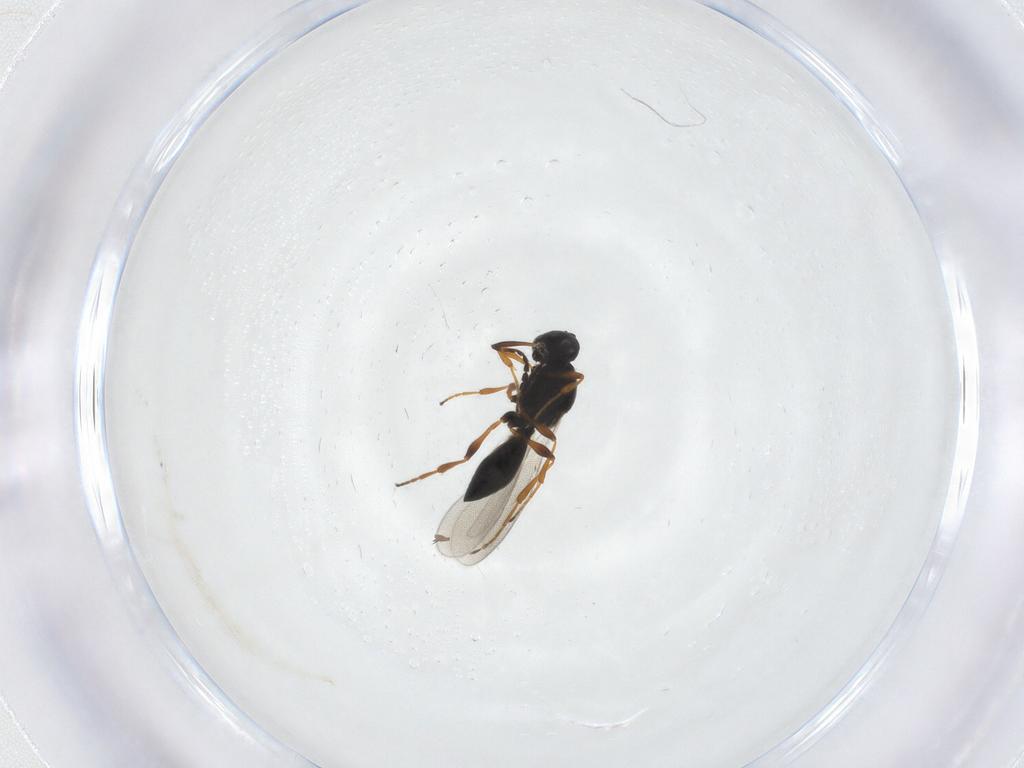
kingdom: Animalia
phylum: Arthropoda
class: Insecta
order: Hymenoptera
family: Platygastridae
